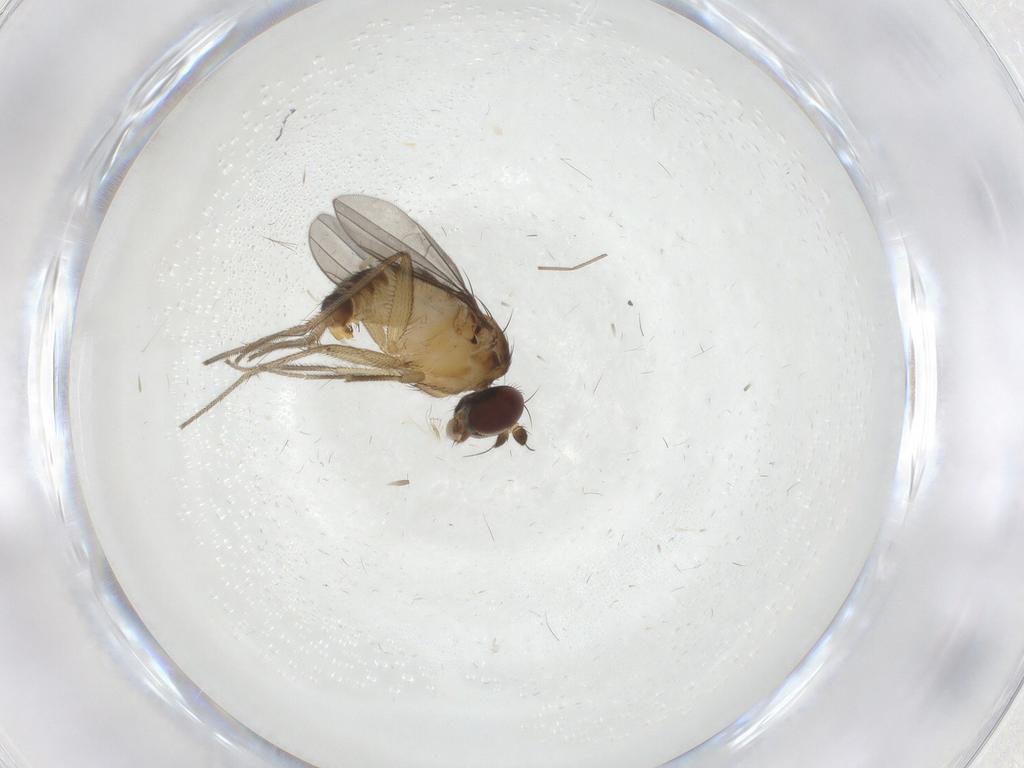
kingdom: Animalia
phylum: Arthropoda
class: Insecta
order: Diptera
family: Dolichopodidae
